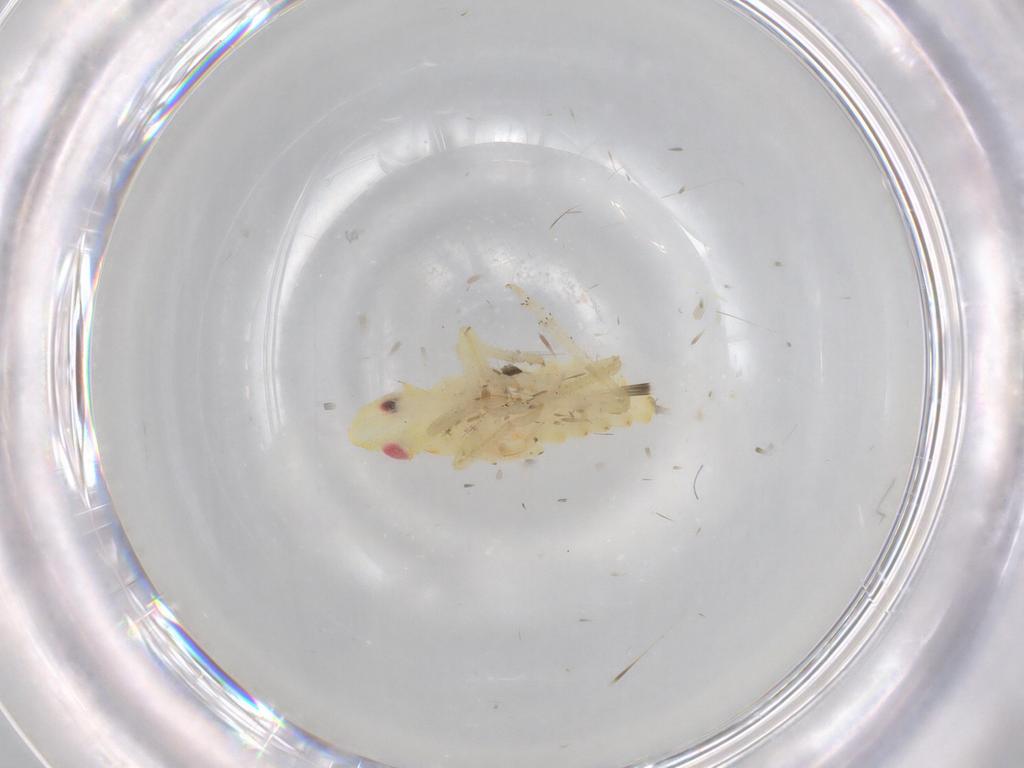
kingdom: Animalia
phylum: Arthropoda
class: Insecta
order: Hemiptera
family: Tropiduchidae
